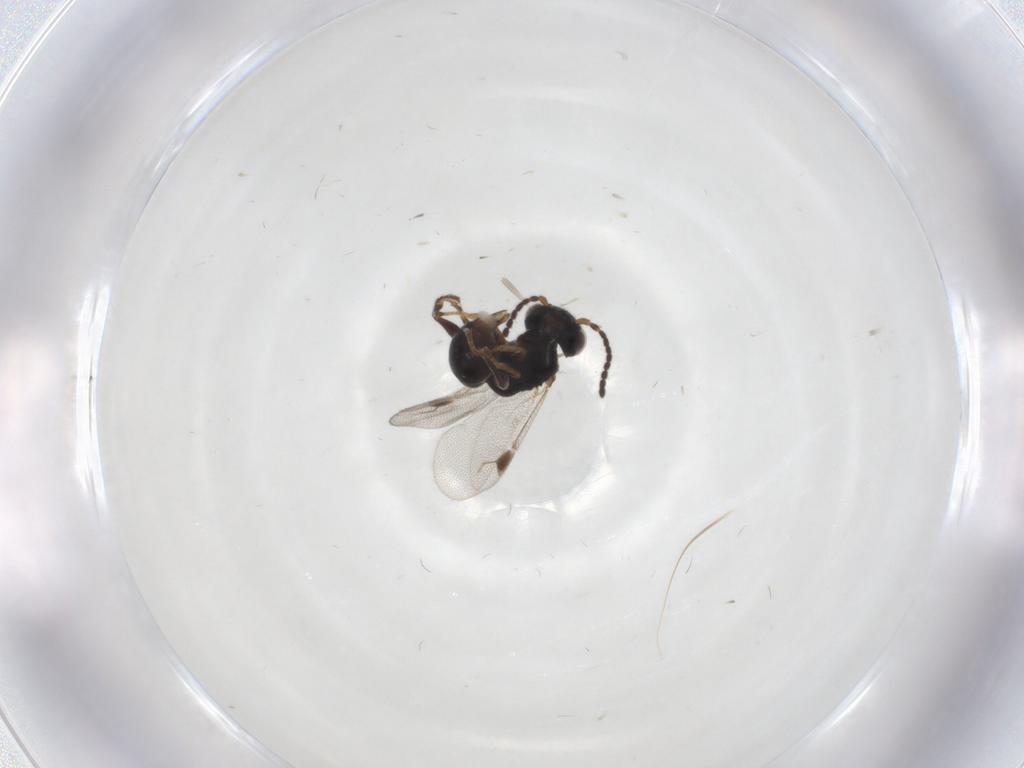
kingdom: Animalia
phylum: Arthropoda
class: Insecta
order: Hymenoptera
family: Dryinidae
